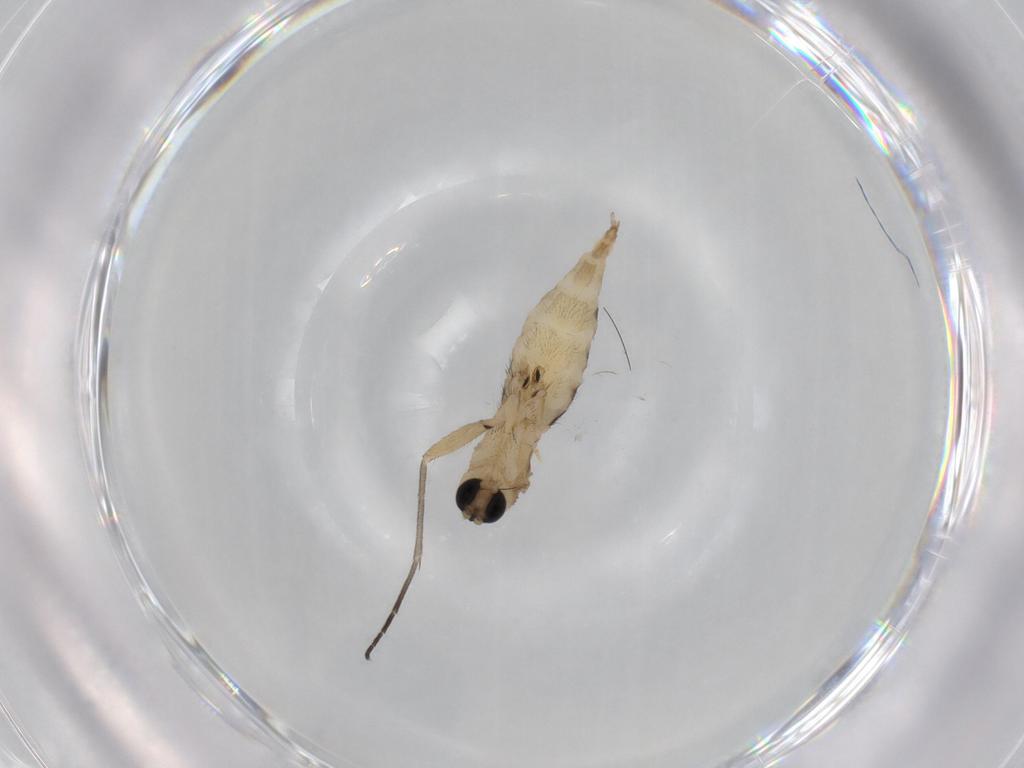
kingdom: Animalia
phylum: Arthropoda
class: Insecta
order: Diptera
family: Sciaridae
